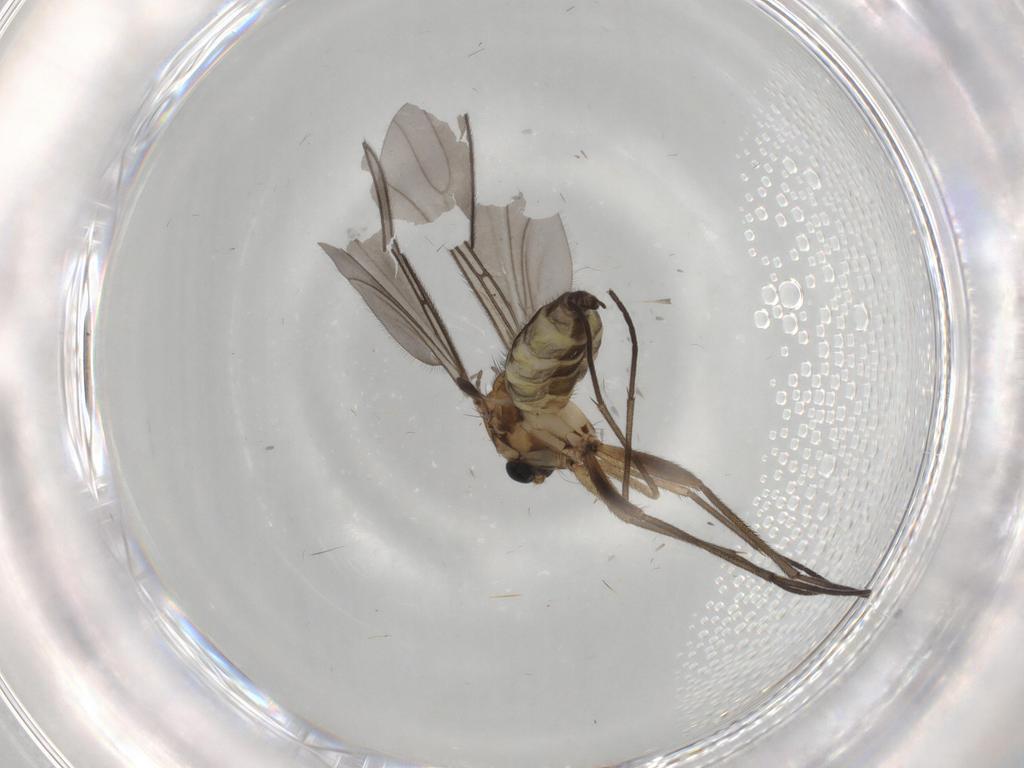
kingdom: Animalia
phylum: Arthropoda
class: Insecta
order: Diptera
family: Sciaridae
